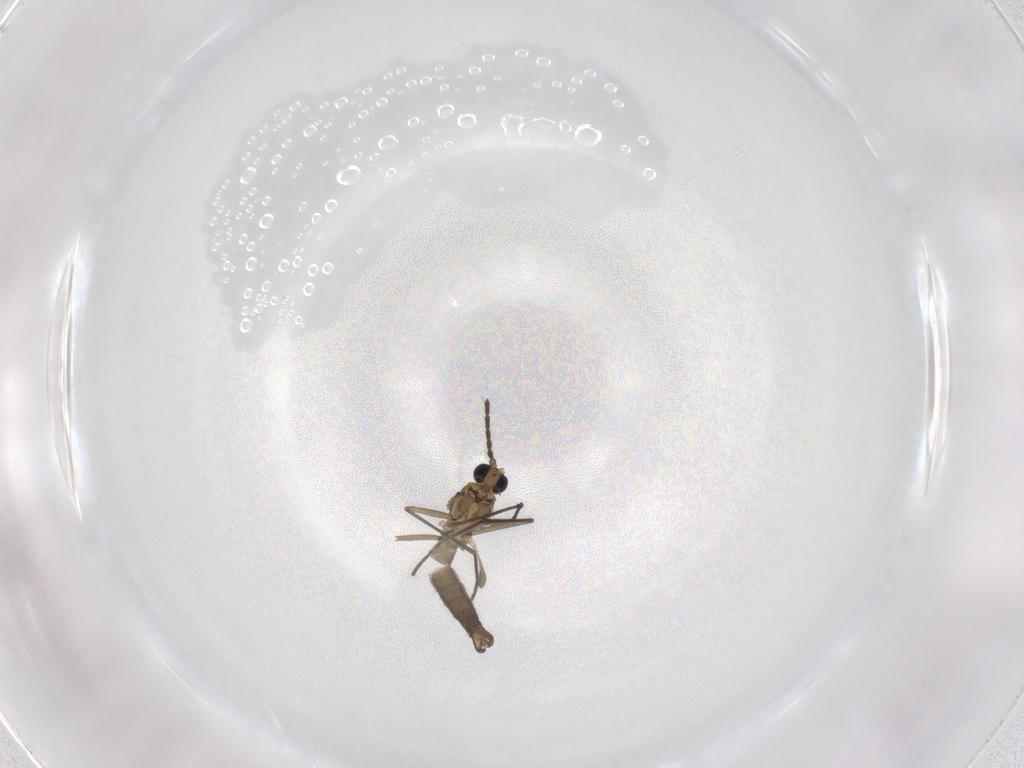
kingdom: Animalia
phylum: Arthropoda
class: Insecta
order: Diptera
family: Sciaridae
